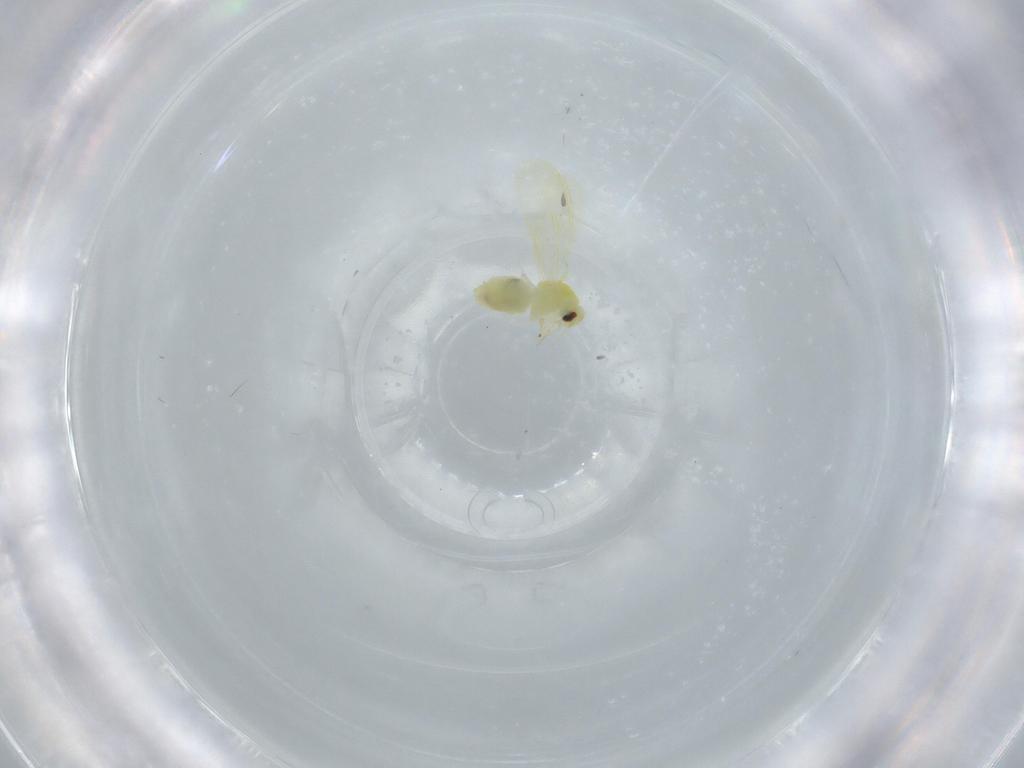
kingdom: Animalia
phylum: Arthropoda
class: Insecta
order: Hemiptera
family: Aleyrodidae
